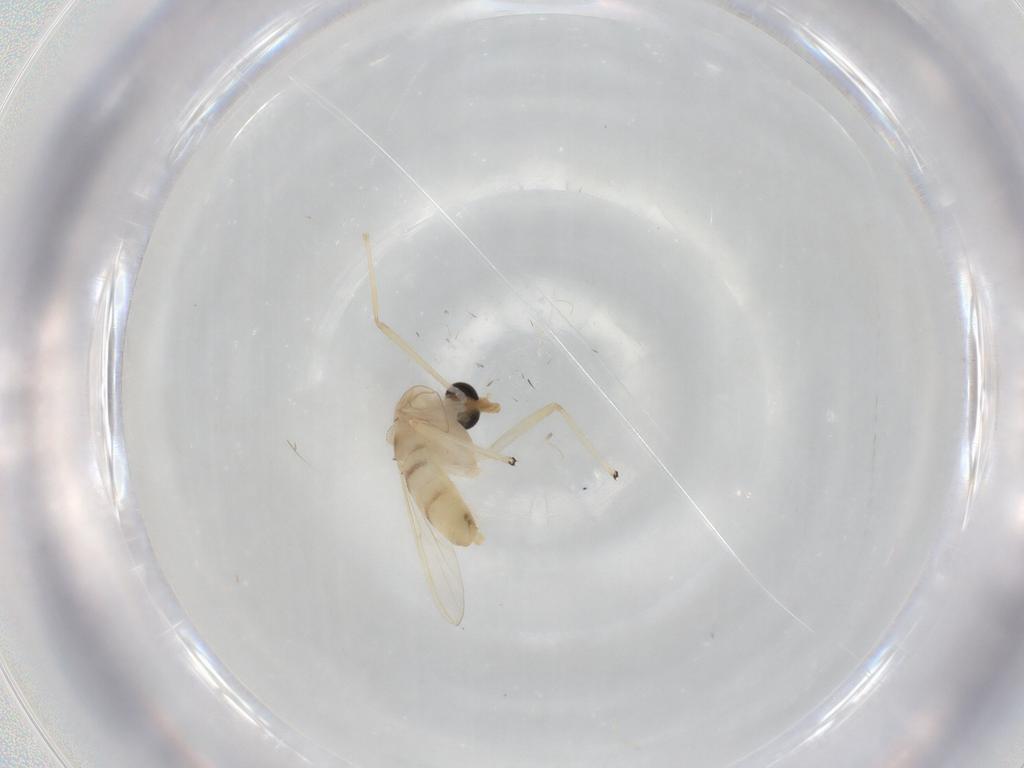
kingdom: Animalia
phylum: Arthropoda
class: Insecta
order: Diptera
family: Chironomidae
